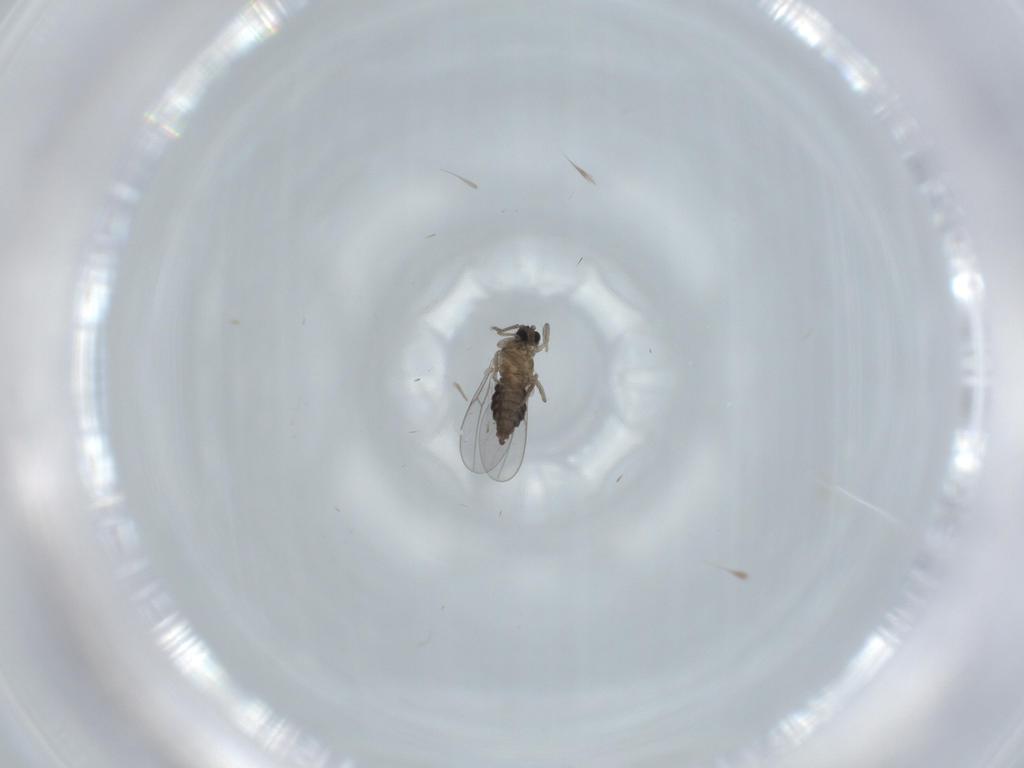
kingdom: Animalia
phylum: Arthropoda
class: Insecta
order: Diptera
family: Cecidomyiidae
